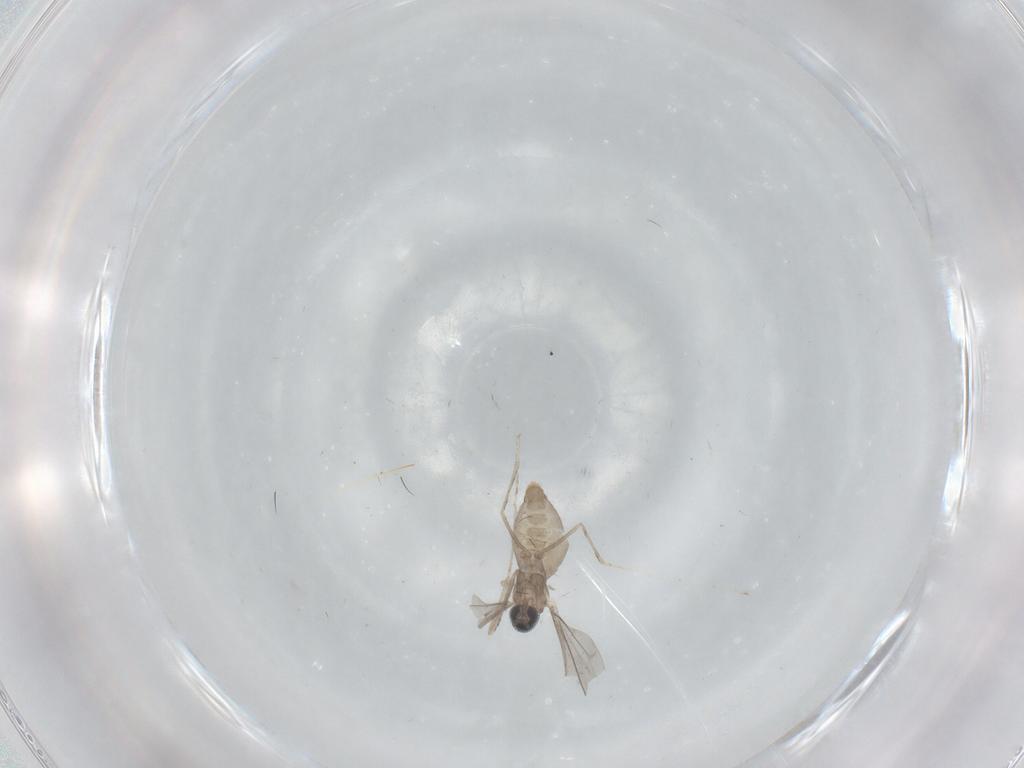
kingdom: Animalia
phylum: Arthropoda
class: Insecta
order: Diptera
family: Cecidomyiidae
